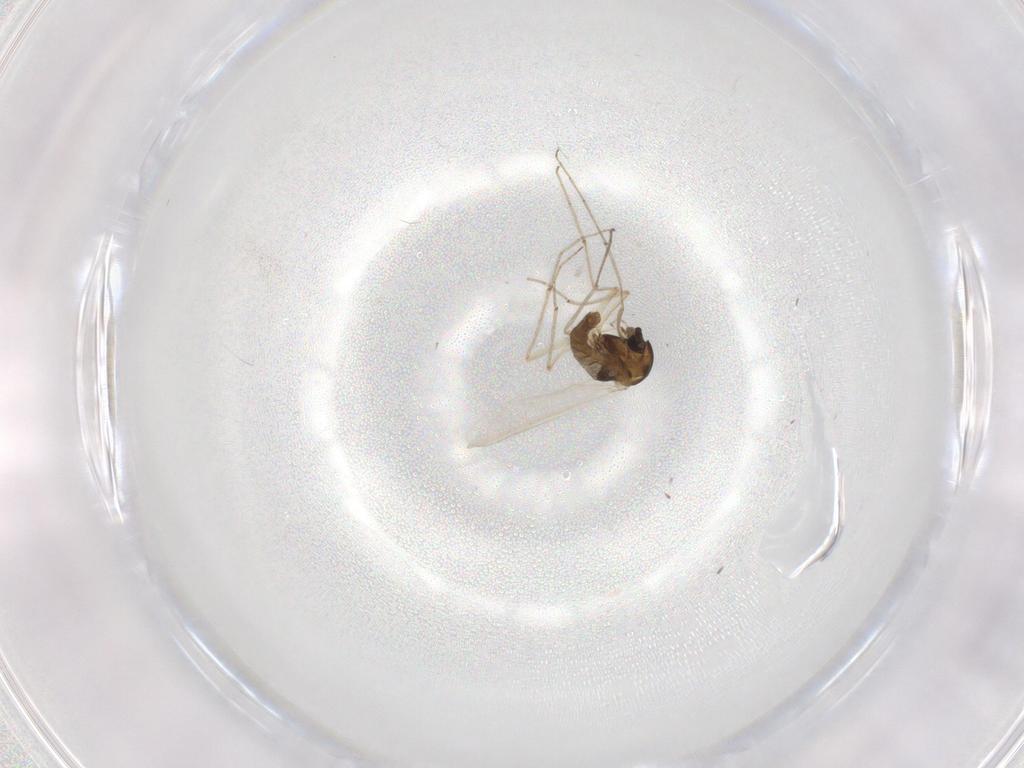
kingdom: Animalia
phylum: Arthropoda
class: Insecta
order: Diptera
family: Chironomidae
